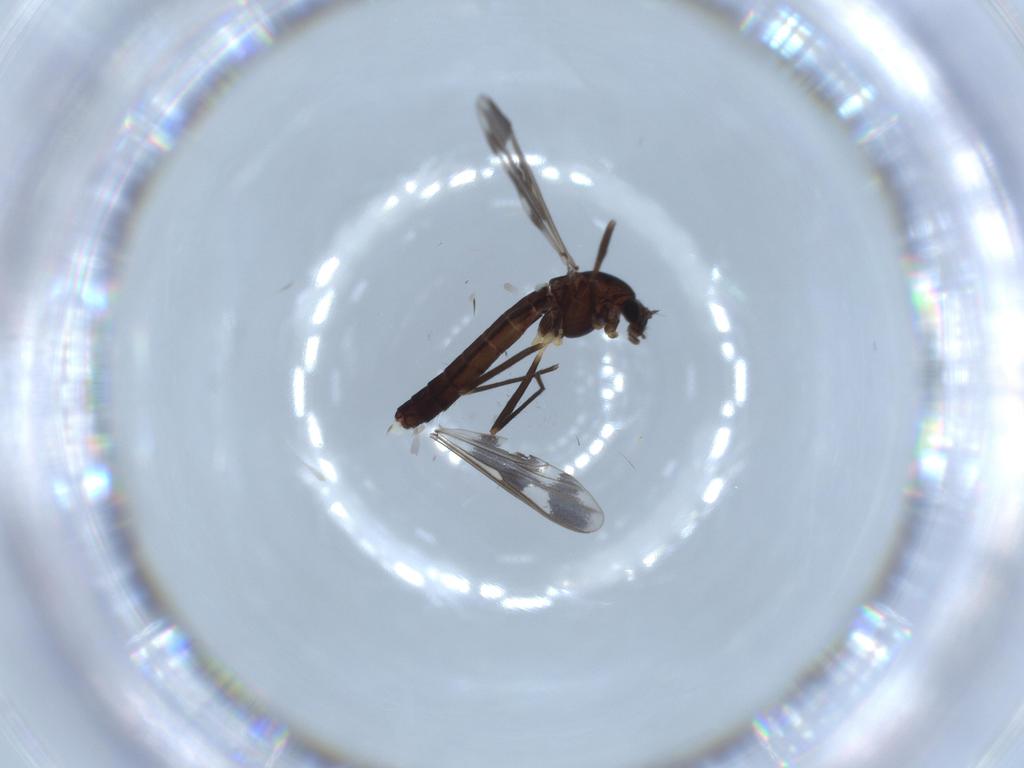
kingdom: Animalia
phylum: Arthropoda
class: Insecta
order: Diptera
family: Chironomidae
